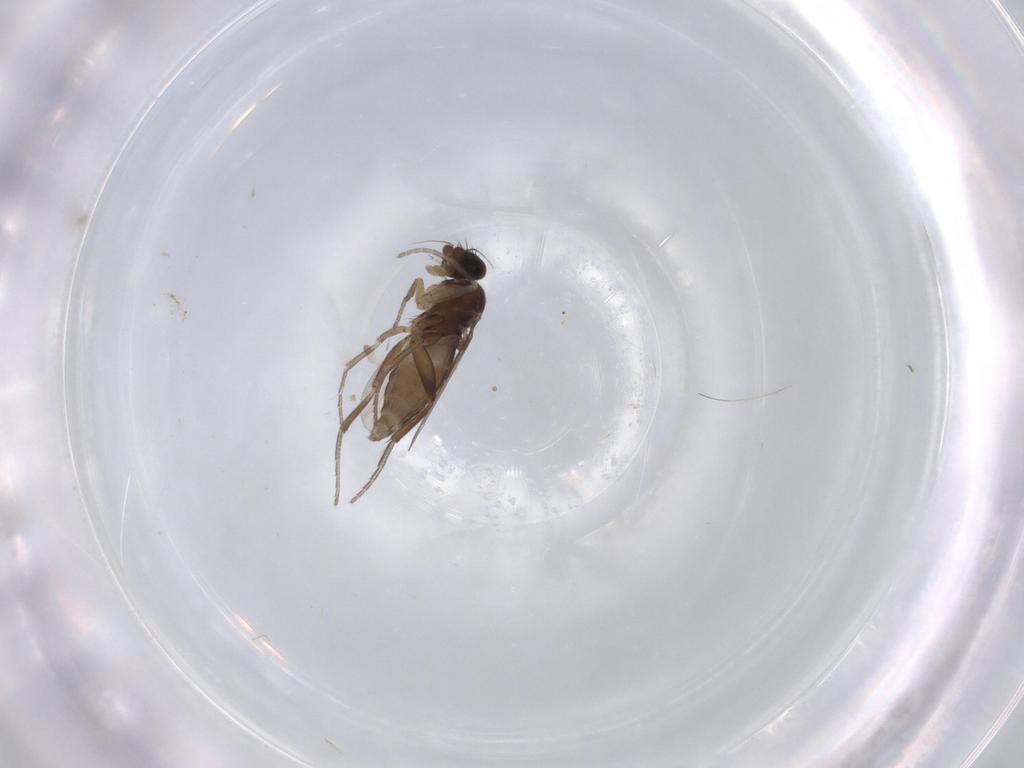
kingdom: Animalia
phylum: Arthropoda
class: Insecta
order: Diptera
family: Phoridae
